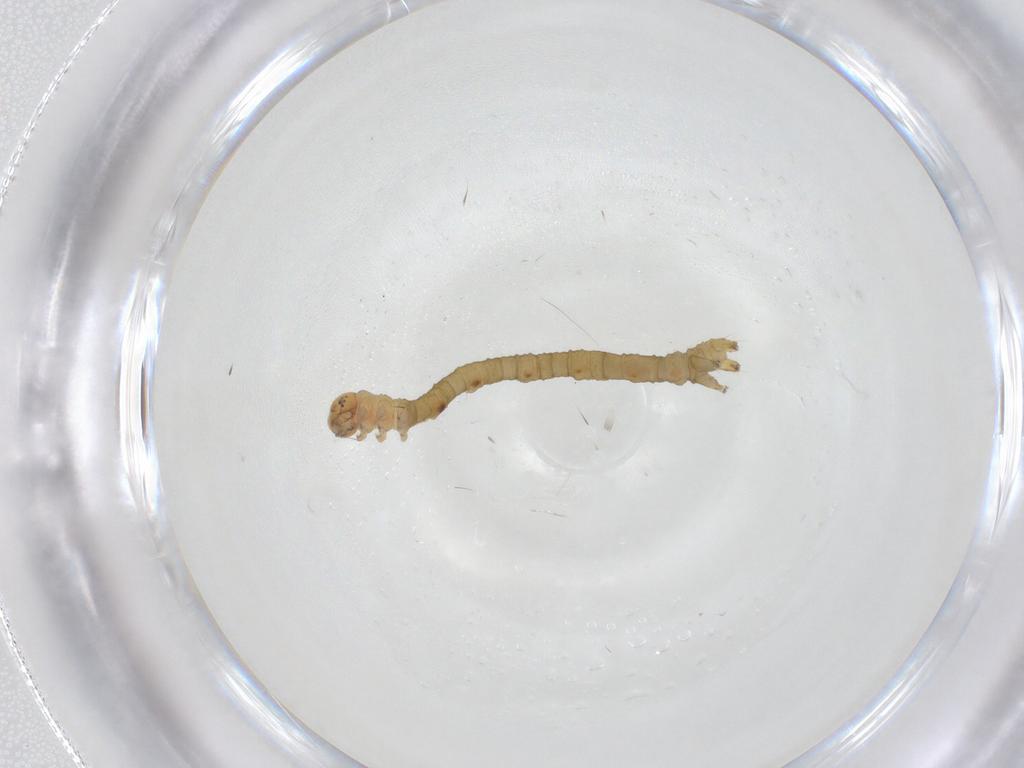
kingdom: Animalia
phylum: Arthropoda
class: Insecta
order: Lepidoptera
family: Geometridae
